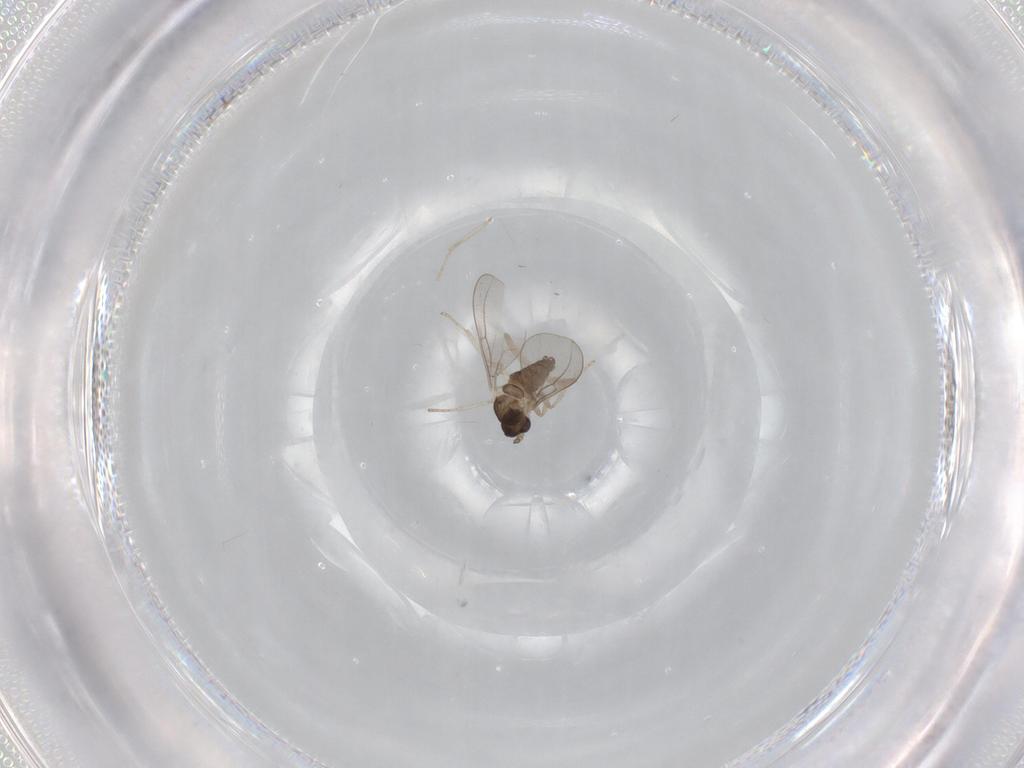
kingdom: Animalia
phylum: Arthropoda
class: Insecta
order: Diptera
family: Cecidomyiidae
